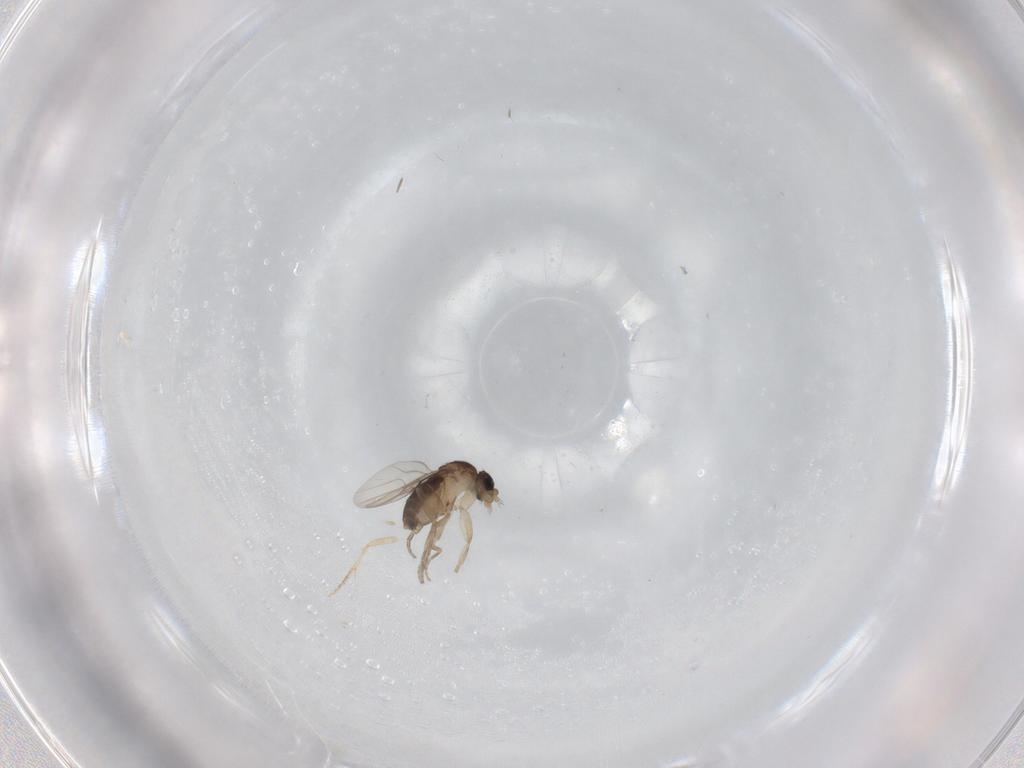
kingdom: Animalia
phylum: Arthropoda
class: Insecta
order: Diptera
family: Phoridae
